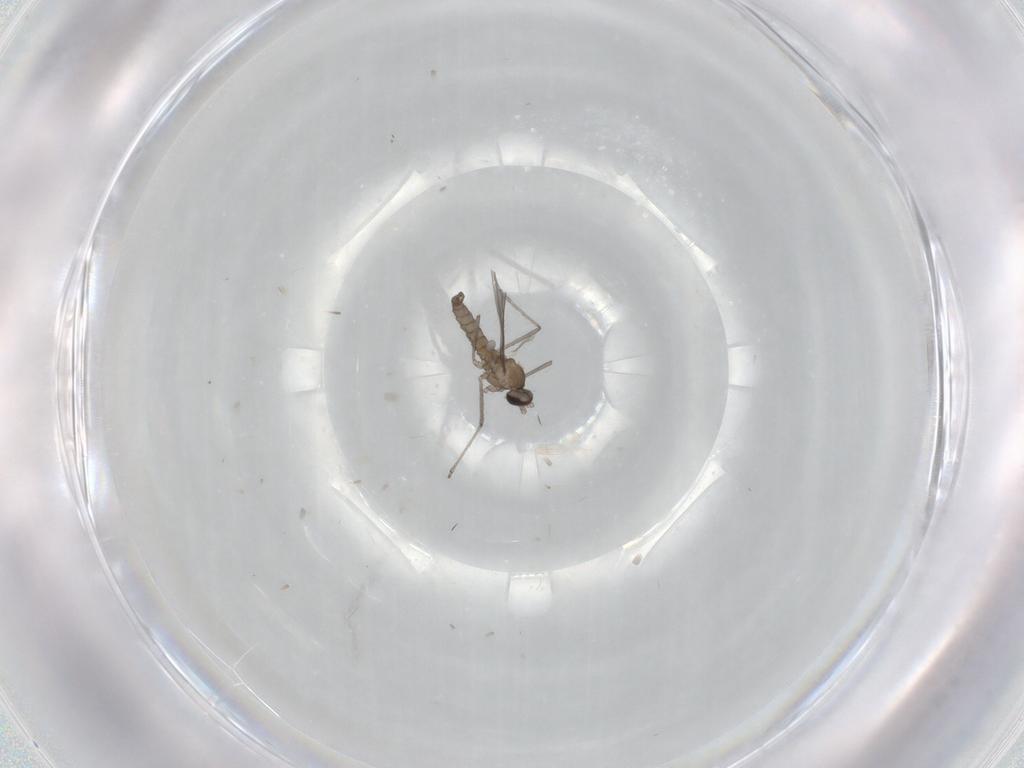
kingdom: Animalia
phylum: Arthropoda
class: Insecta
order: Diptera
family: Cecidomyiidae
